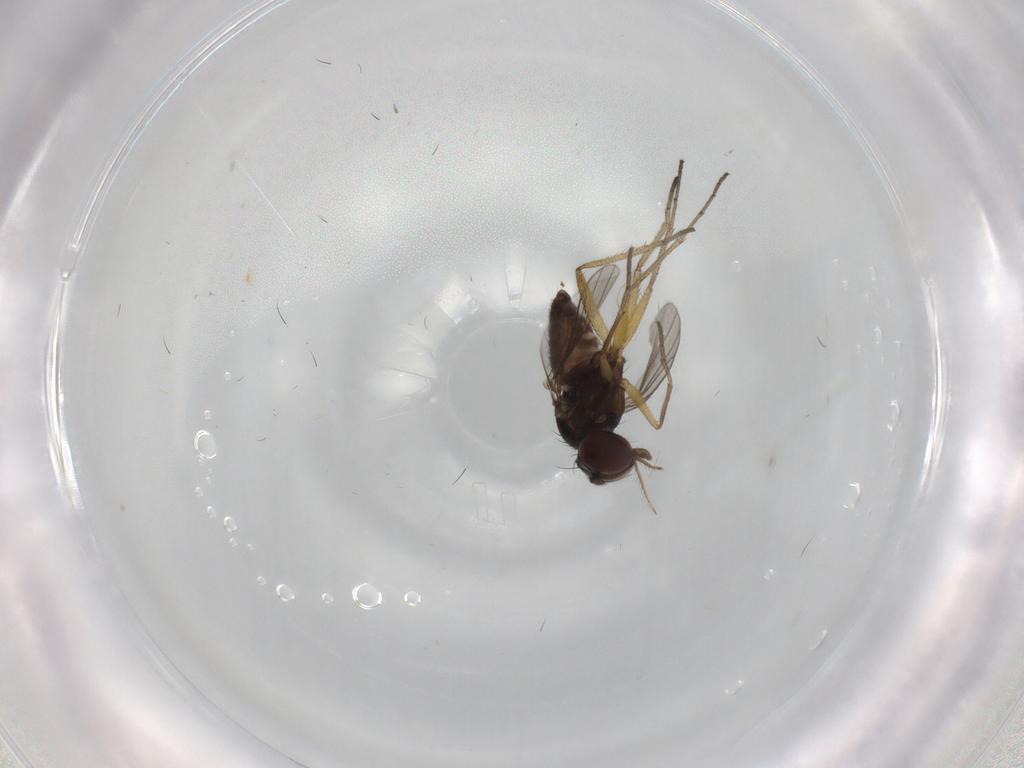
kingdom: Animalia
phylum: Arthropoda
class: Insecta
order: Diptera
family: Dolichopodidae
